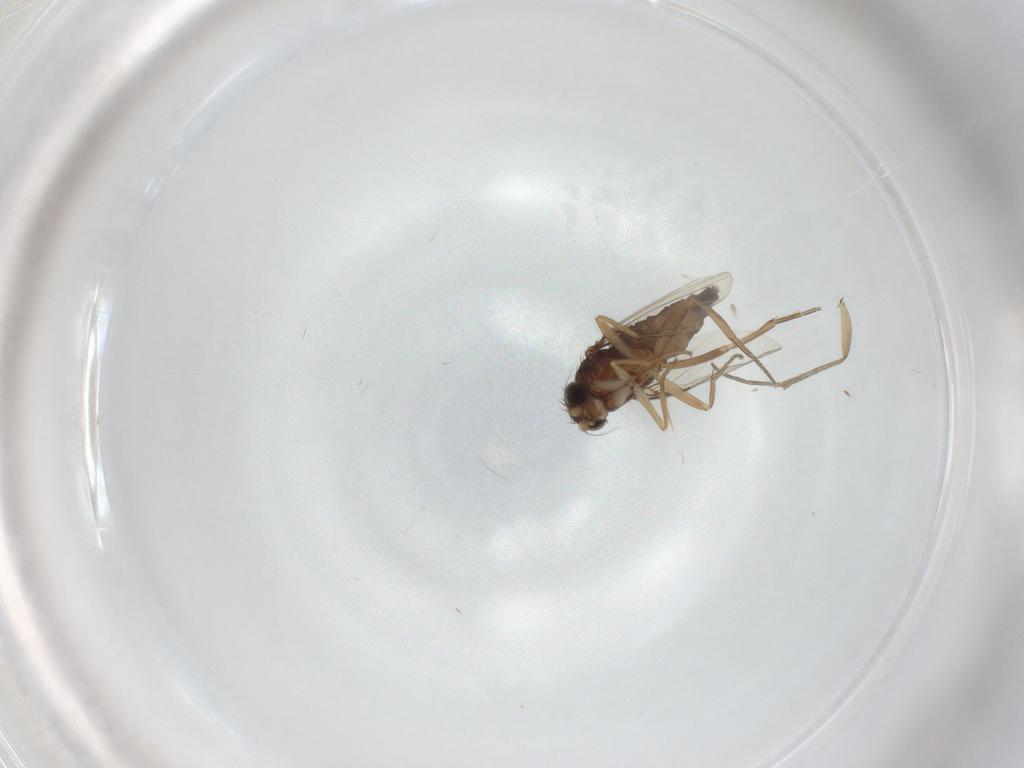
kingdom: Animalia
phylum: Arthropoda
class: Insecta
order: Diptera
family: Phoridae
